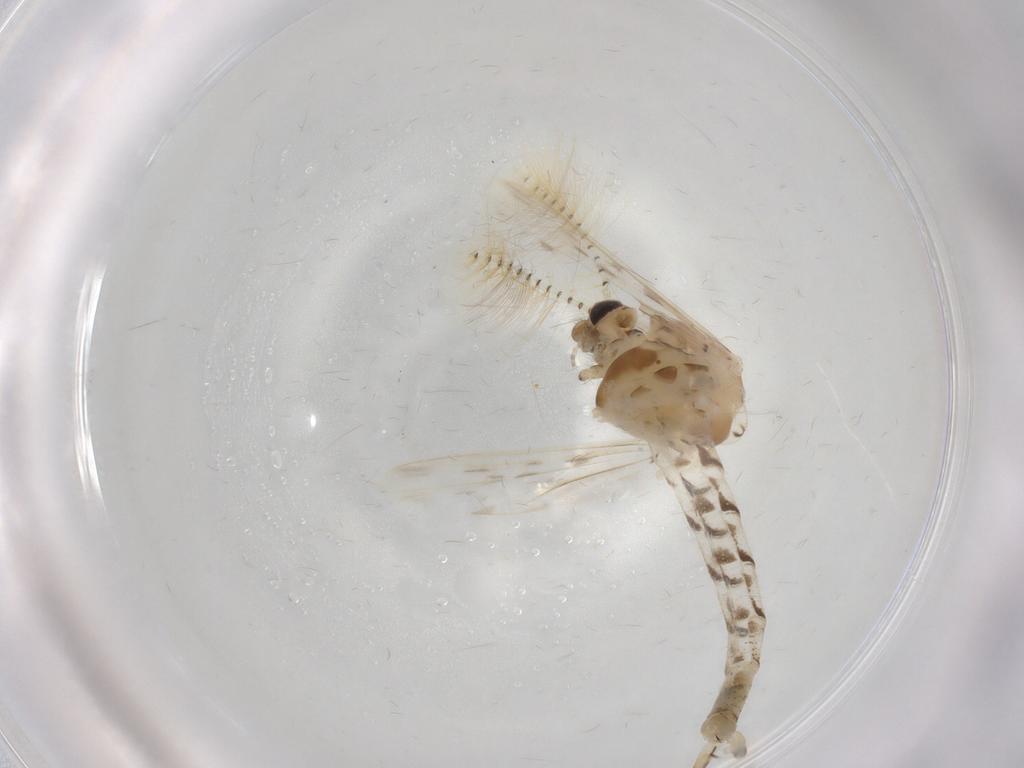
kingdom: Animalia
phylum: Arthropoda
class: Insecta
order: Diptera
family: Chaoboridae
